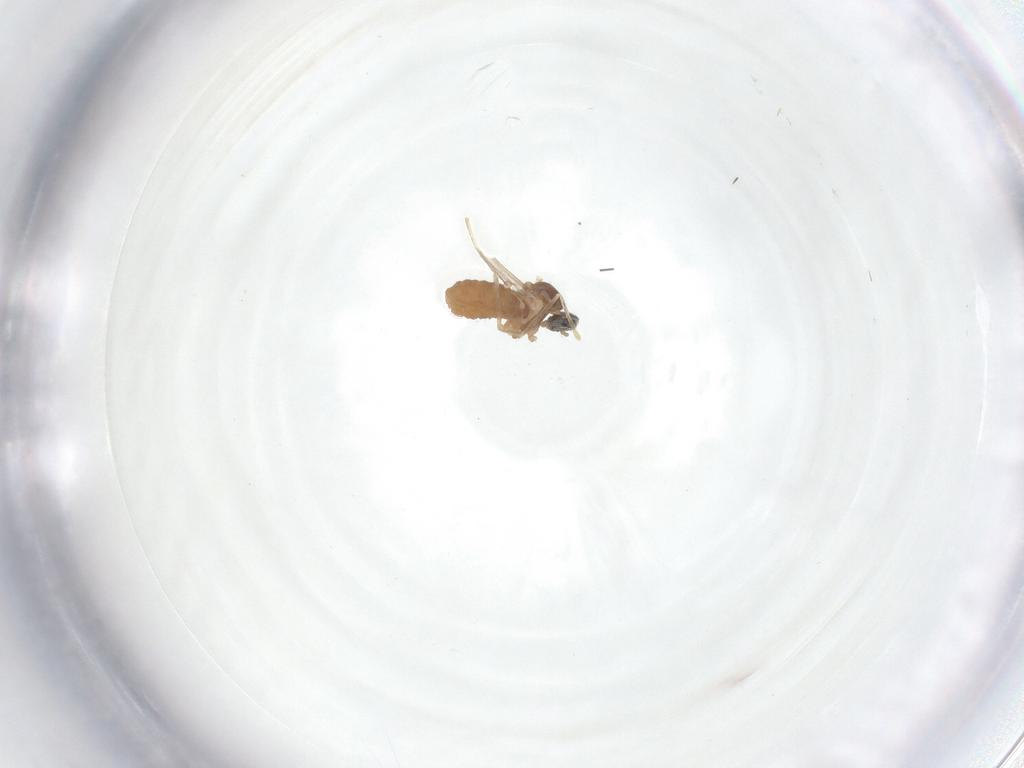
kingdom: Animalia
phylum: Arthropoda
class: Insecta
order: Diptera
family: Cecidomyiidae
